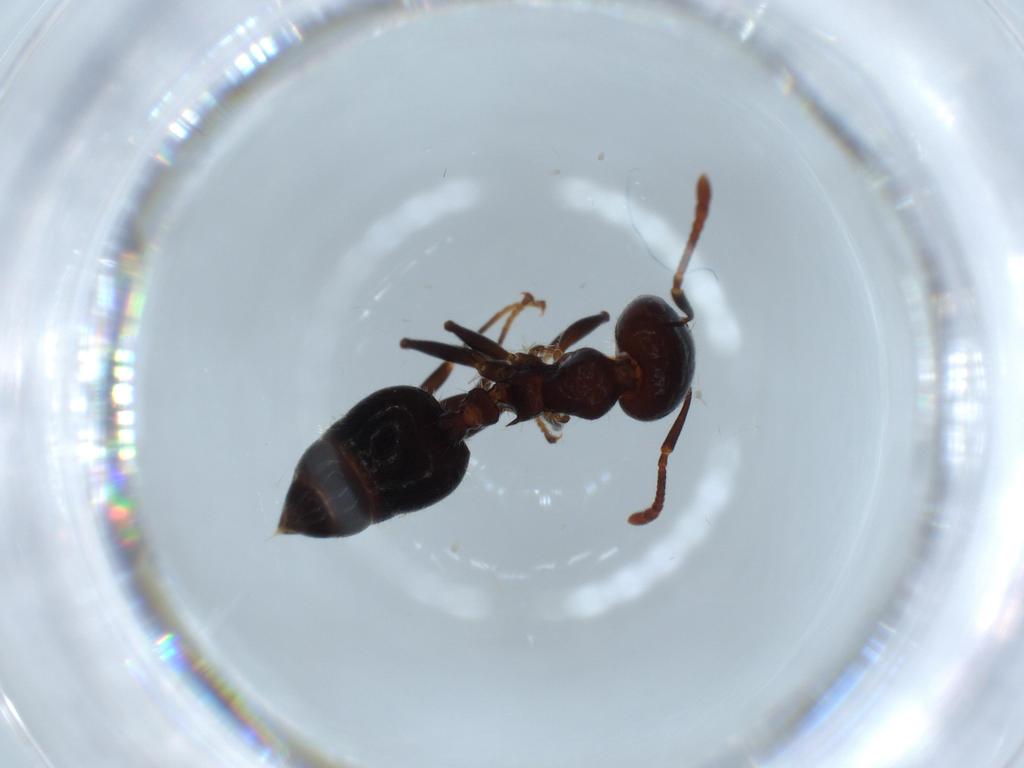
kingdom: Animalia
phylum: Arthropoda
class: Insecta
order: Hymenoptera
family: Formicidae
